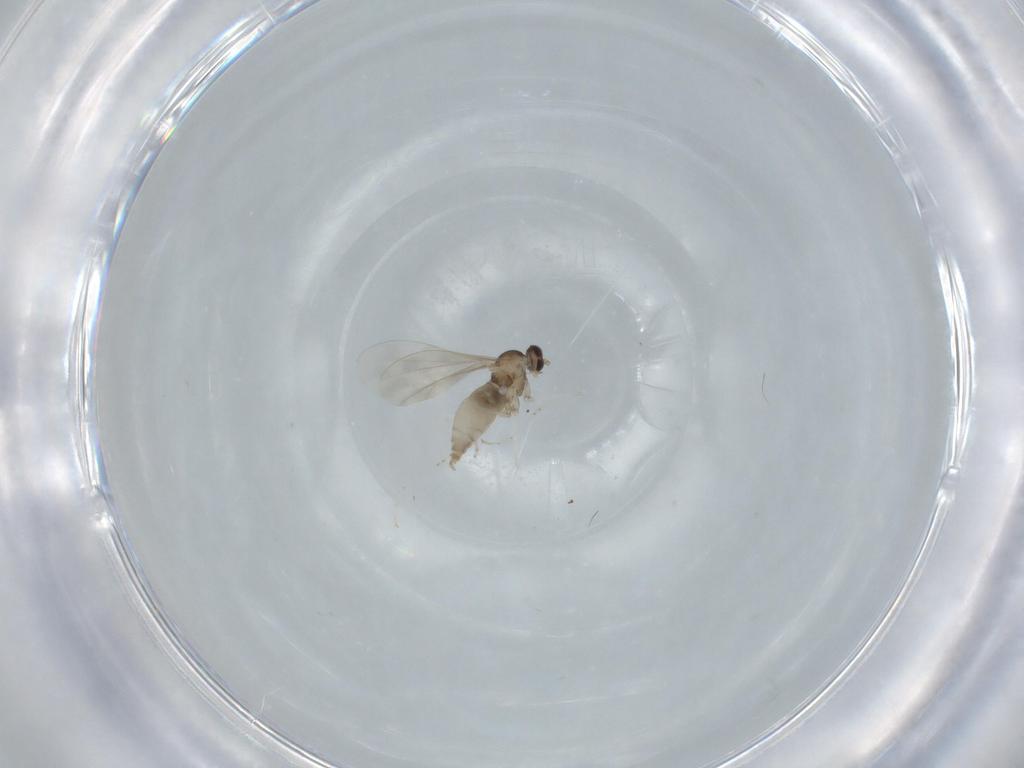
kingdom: Animalia
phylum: Arthropoda
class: Insecta
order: Diptera
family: Cecidomyiidae
